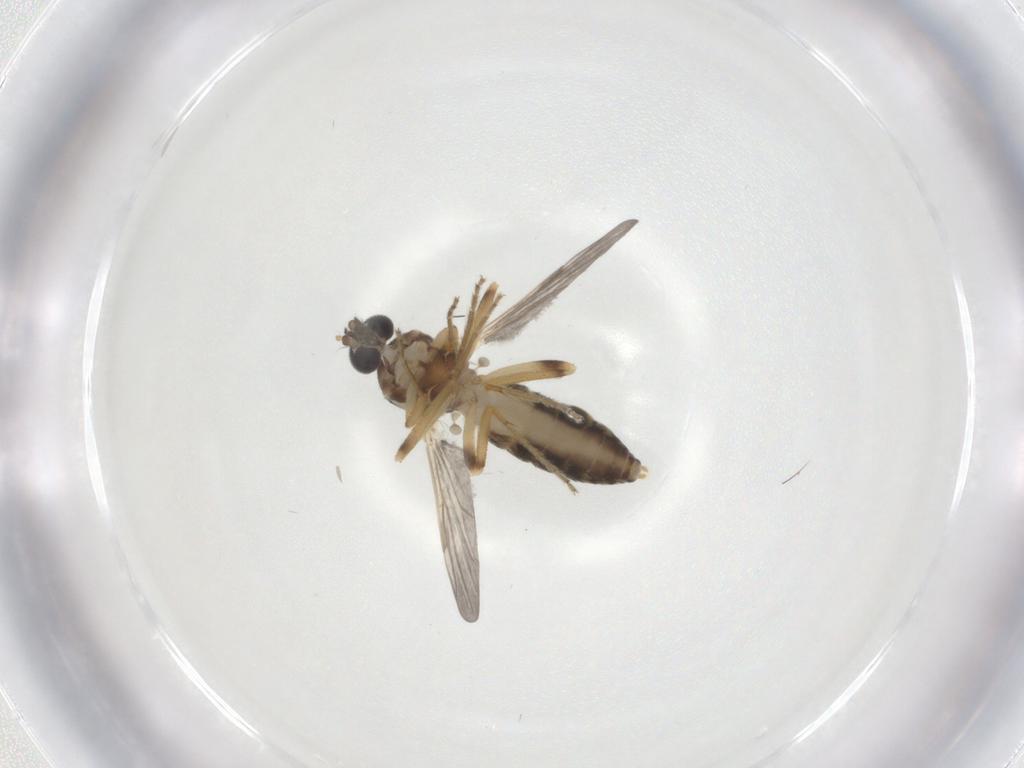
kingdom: Animalia
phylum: Arthropoda
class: Insecta
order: Diptera
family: Ceratopogonidae
